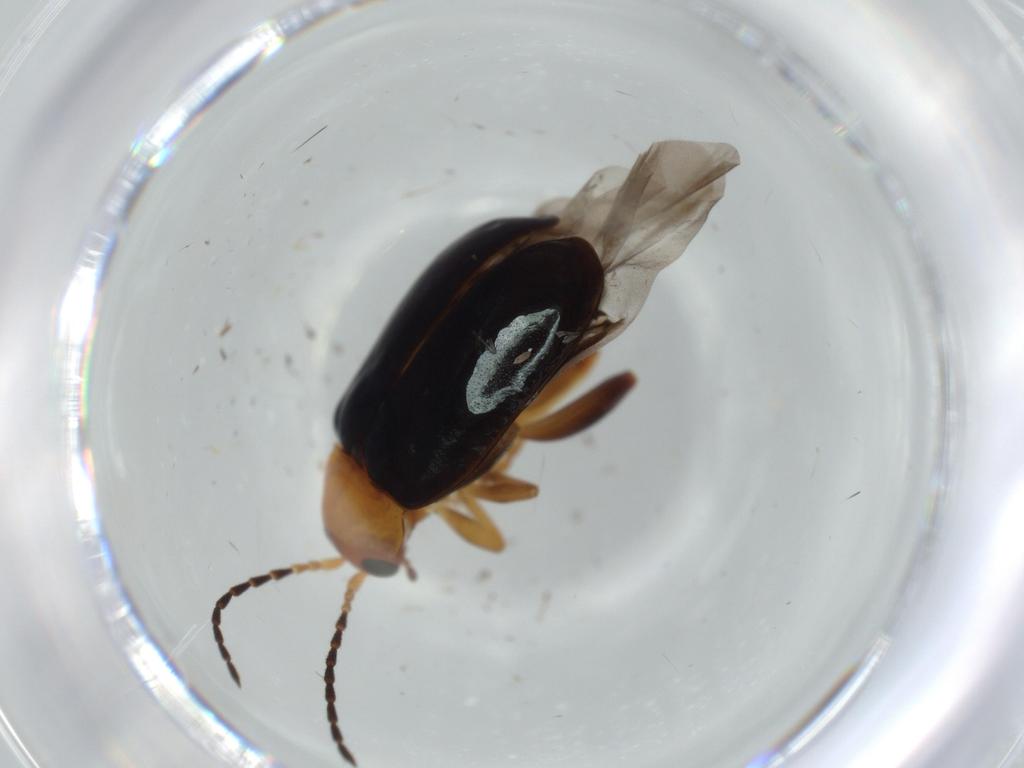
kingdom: Animalia
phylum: Arthropoda
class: Insecta
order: Coleoptera
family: Chrysomelidae
